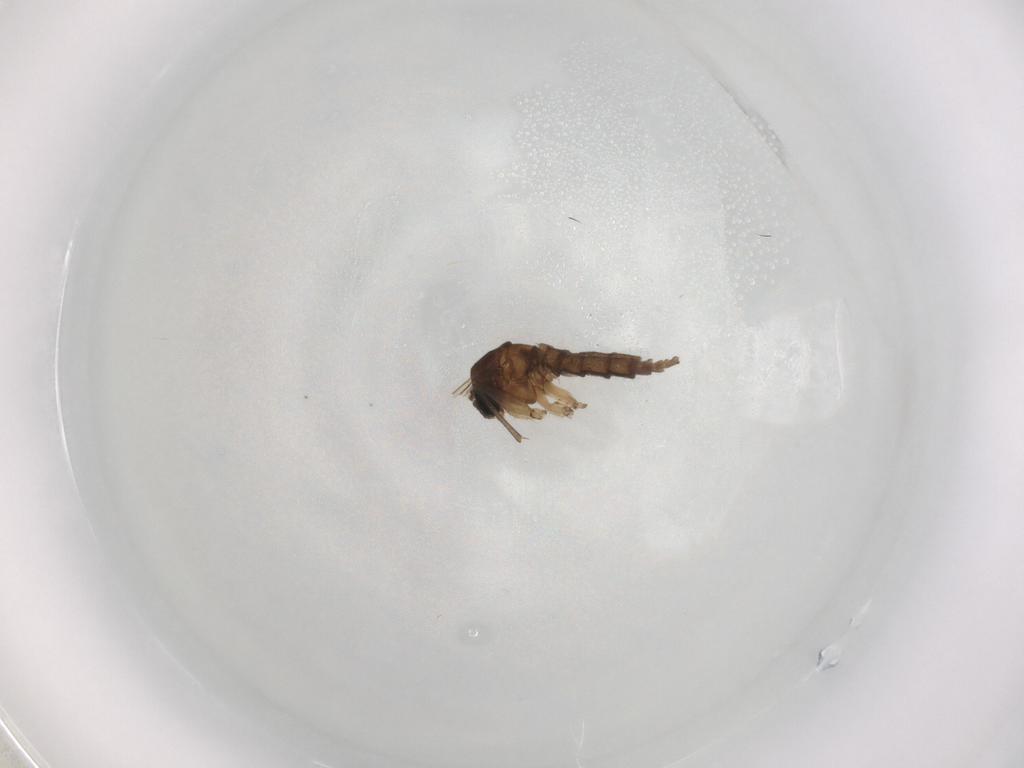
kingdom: Animalia
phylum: Arthropoda
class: Insecta
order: Diptera
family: Sciaridae
